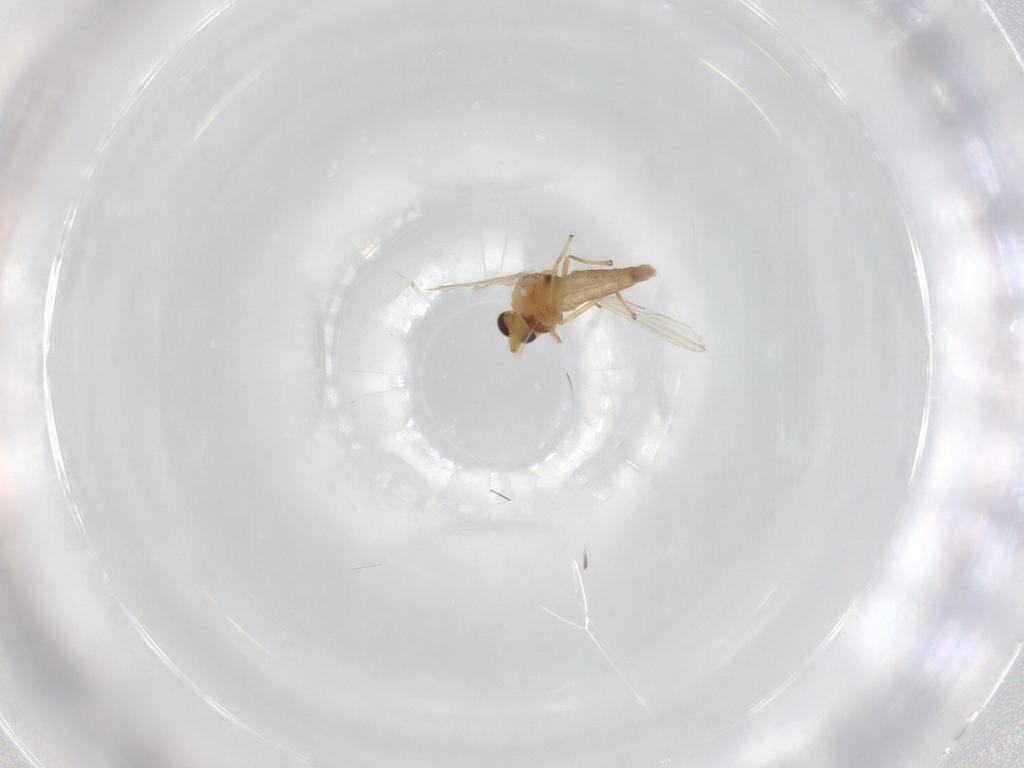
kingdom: Animalia
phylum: Arthropoda
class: Insecta
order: Diptera
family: Chironomidae
